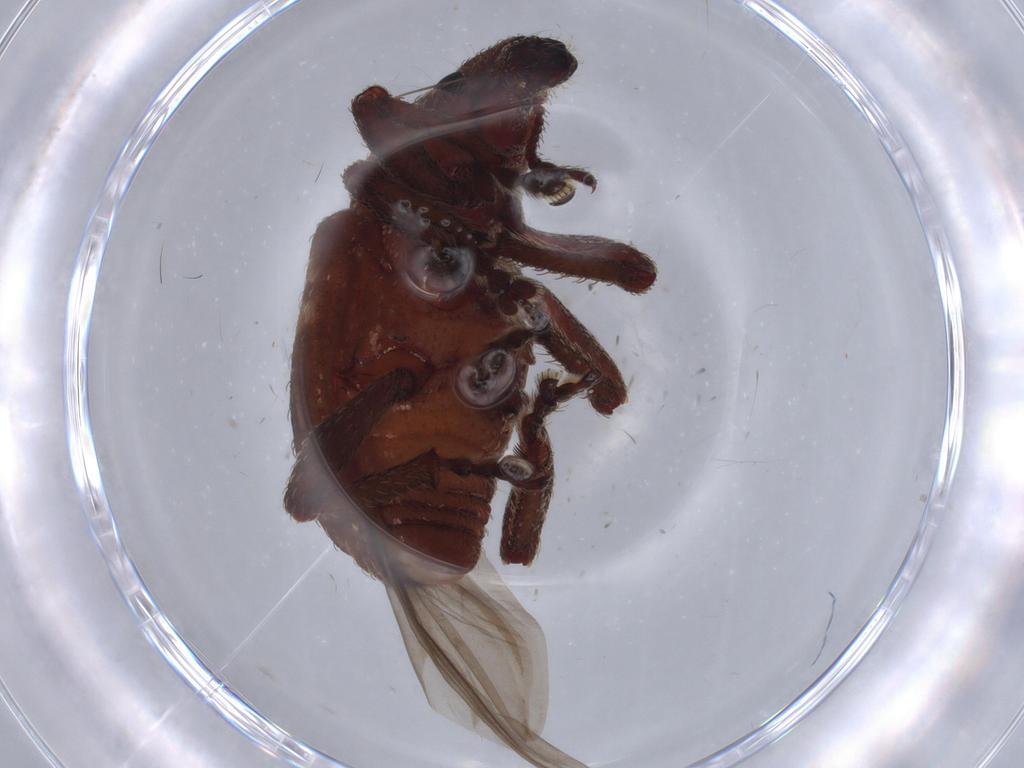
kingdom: Animalia
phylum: Arthropoda
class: Insecta
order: Coleoptera
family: Curculionidae
